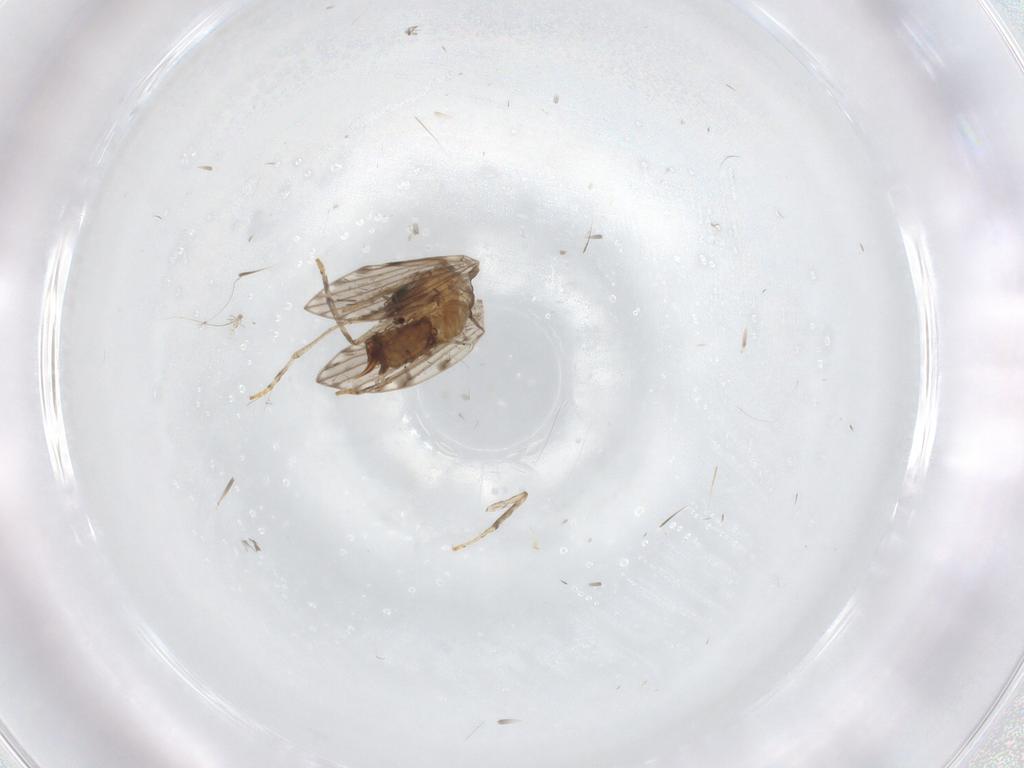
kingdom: Animalia
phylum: Arthropoda
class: Insecta
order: Diptera
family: Psychodidae
